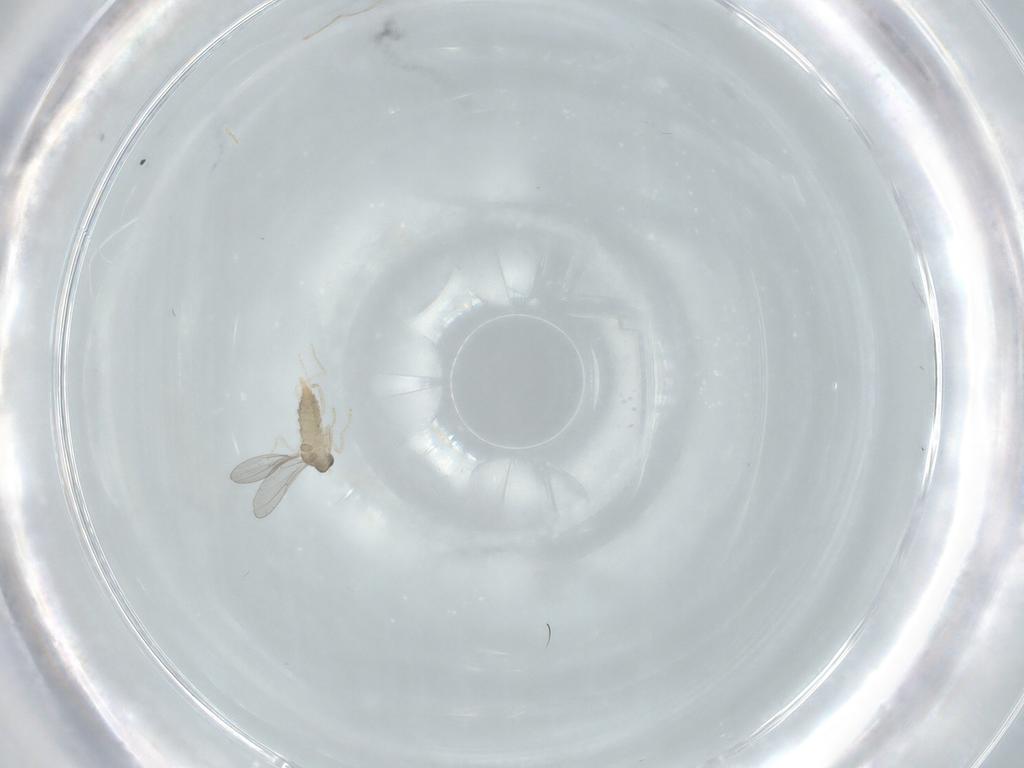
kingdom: Animalia
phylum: Arthropoda
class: Insecta
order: Diptera
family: Cecidomyiidae
